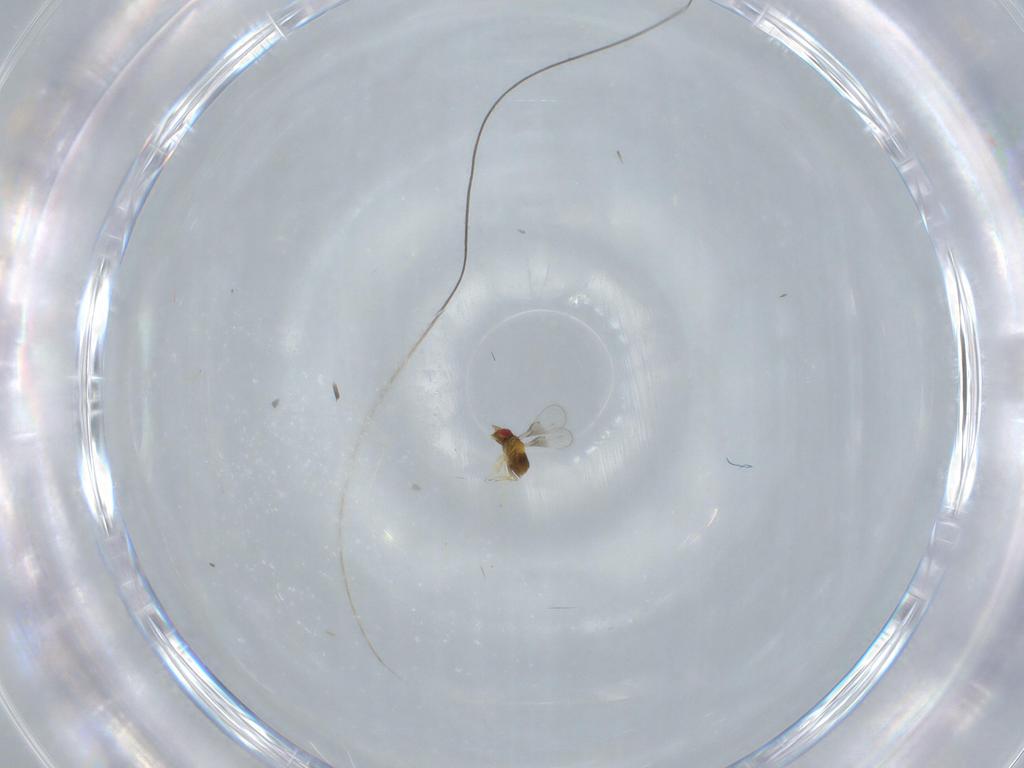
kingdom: Animalia
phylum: Arthropoda
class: Insecta
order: Hymenoptera
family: Trichogrammatidae
